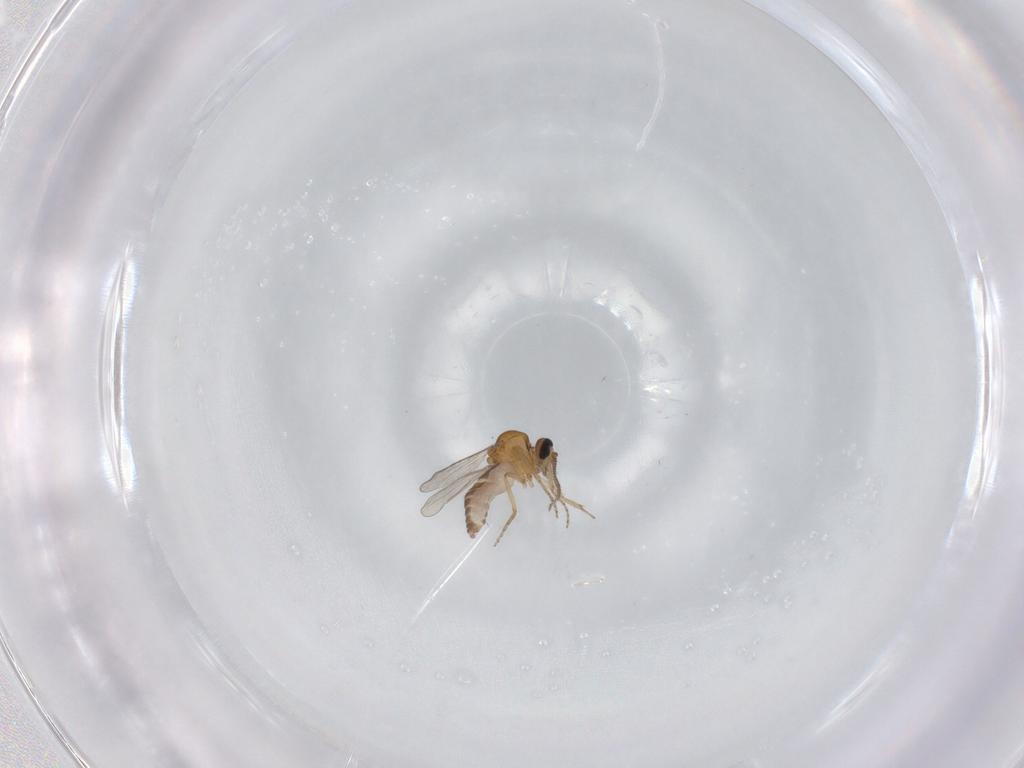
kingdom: Animalia
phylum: Arthropoda
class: Insecta
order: Diptera
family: Ceratopogonidae
